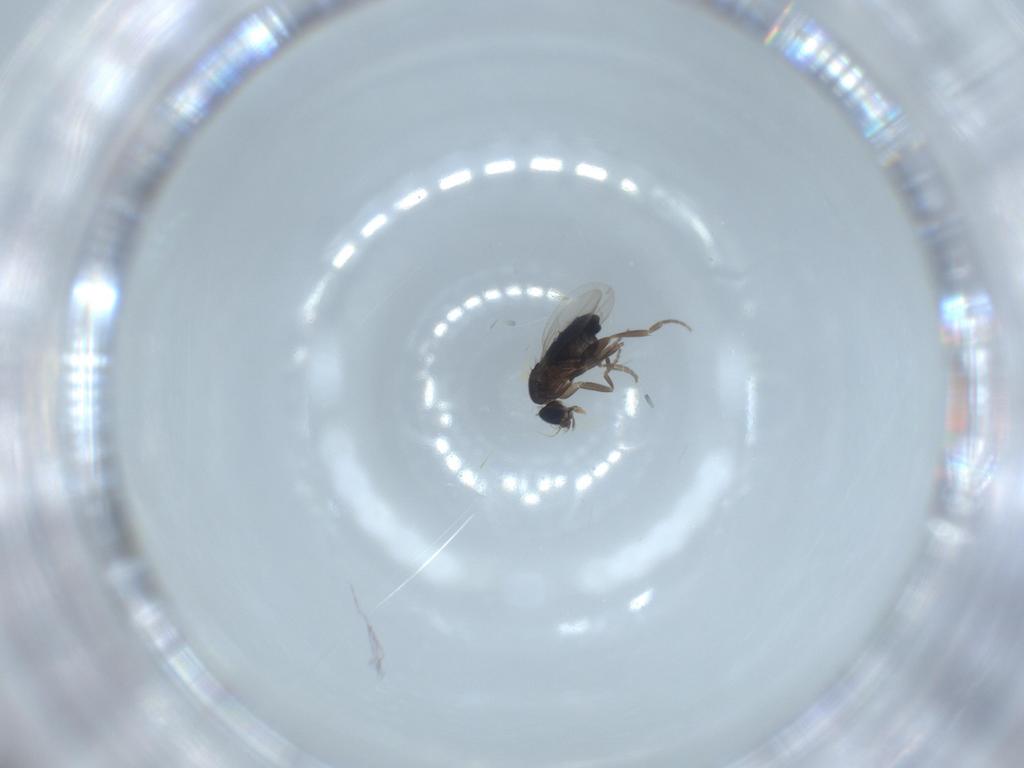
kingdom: Animalia
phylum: Arthropoda
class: Insecta
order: Diptera
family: Phoridae
